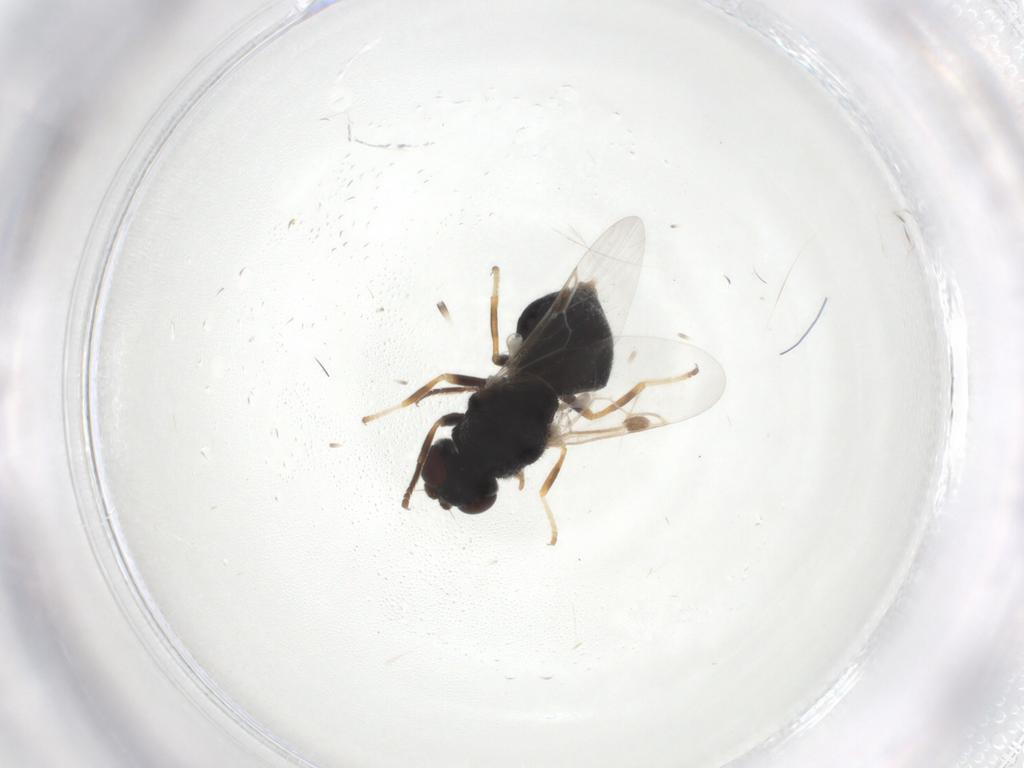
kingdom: Animalia
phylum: Arthropoda
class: Insecta
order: Diptera
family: Stratiomyidae
